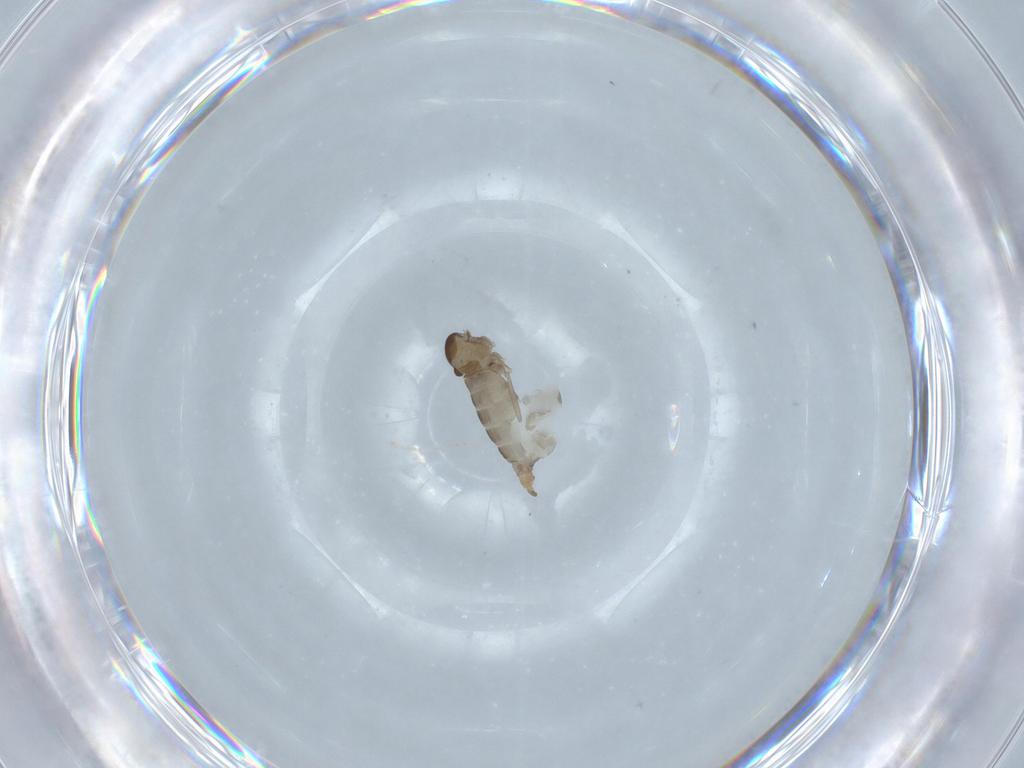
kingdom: Animalia
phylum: Arthropoda
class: Insecta
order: Diptera
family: Cecidomyiidae
